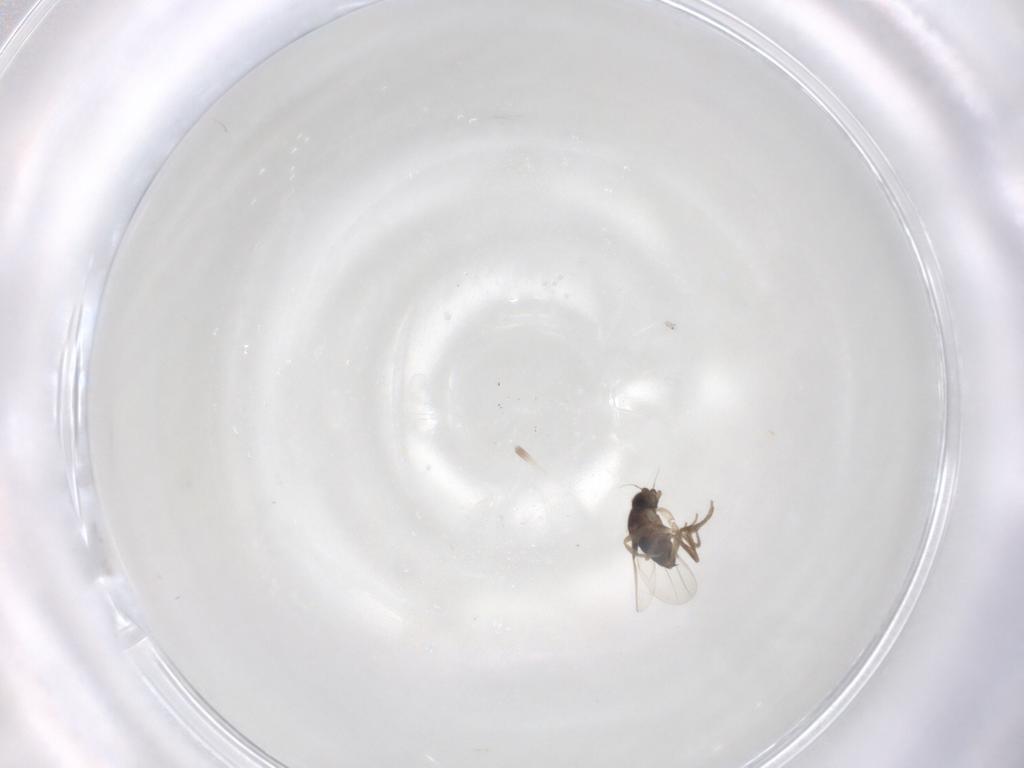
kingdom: Animalia
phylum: Arthropoda
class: Insecta
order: Diptera
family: Phoridae
